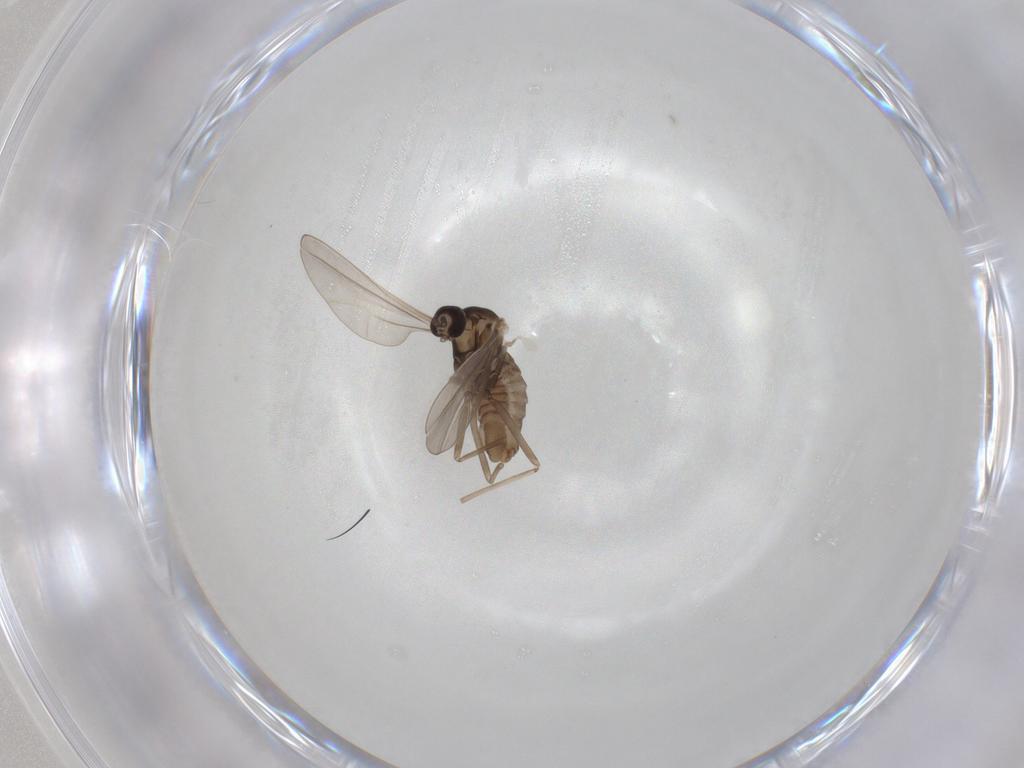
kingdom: Animalia
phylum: Arthropoda
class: Insecta
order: Diptera
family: Cecidomyiidae
